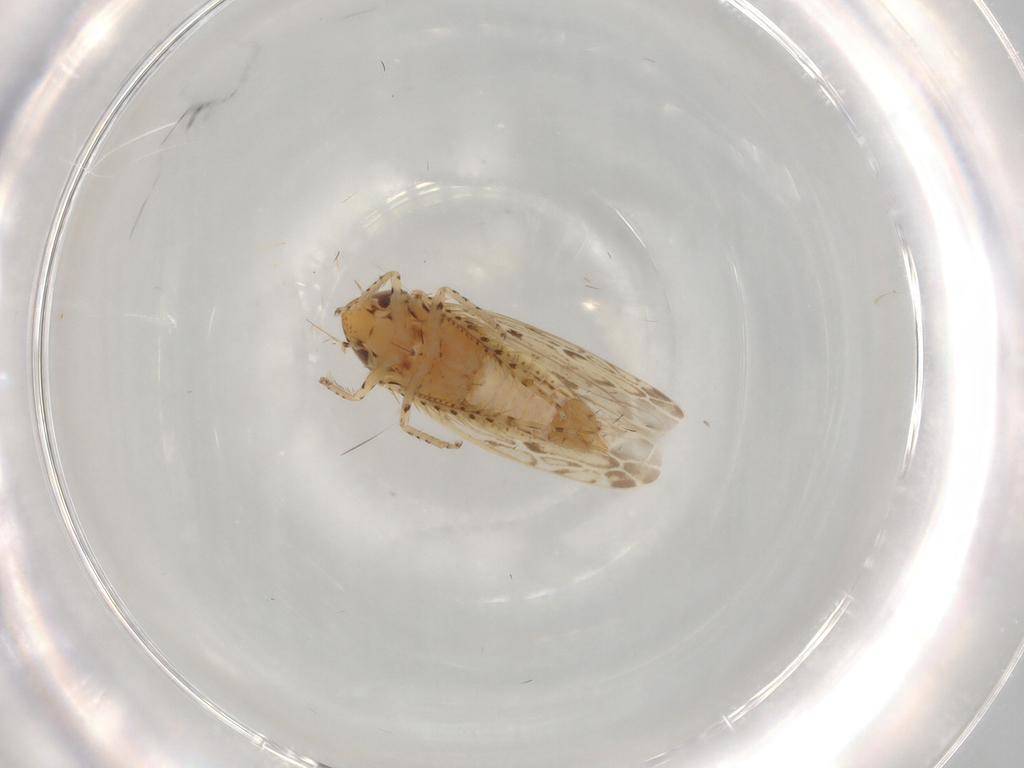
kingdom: Animalia
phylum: Arthropoda
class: Insecta
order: Hemiptera
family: Cicadellidae
